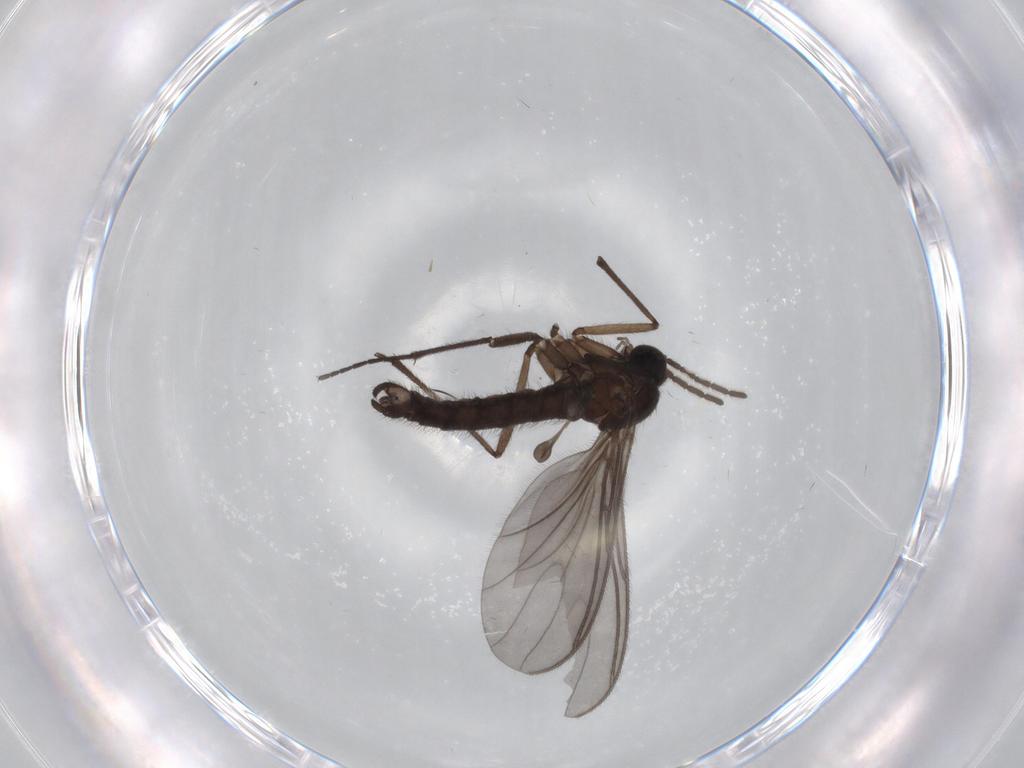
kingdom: Animalia
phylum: Arthropoda
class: Insecta
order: Diptera
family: Sciaridae
